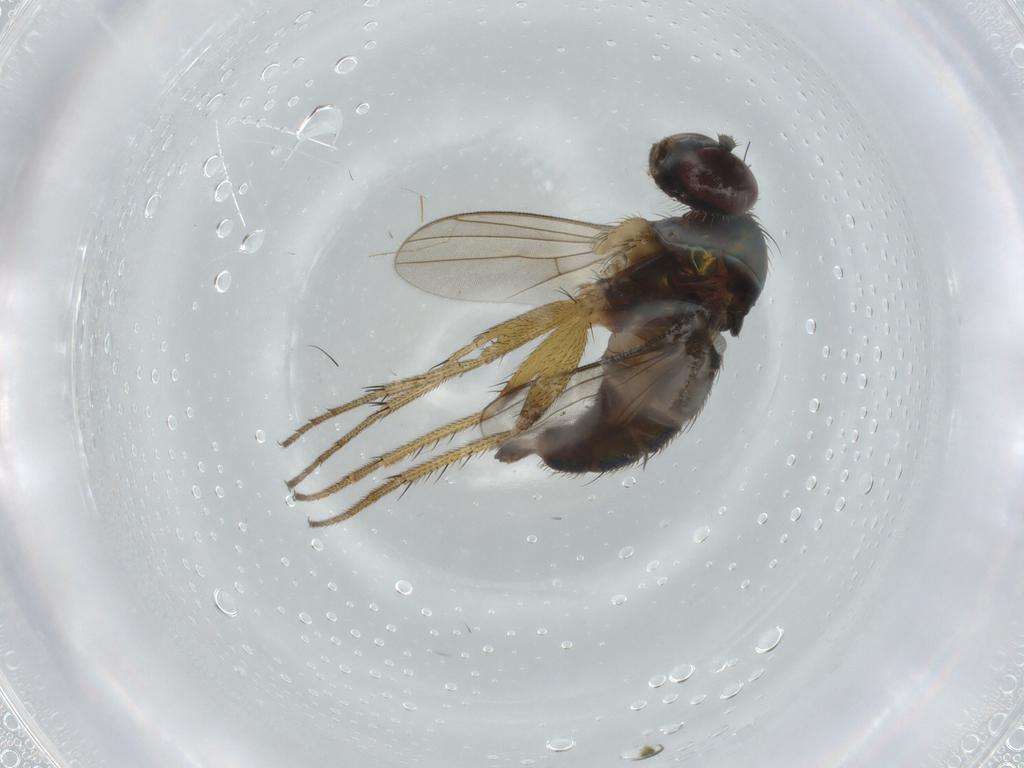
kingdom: Animalia
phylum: Arthropoda
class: Insecta
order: Diptera
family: Dolichopodidae
